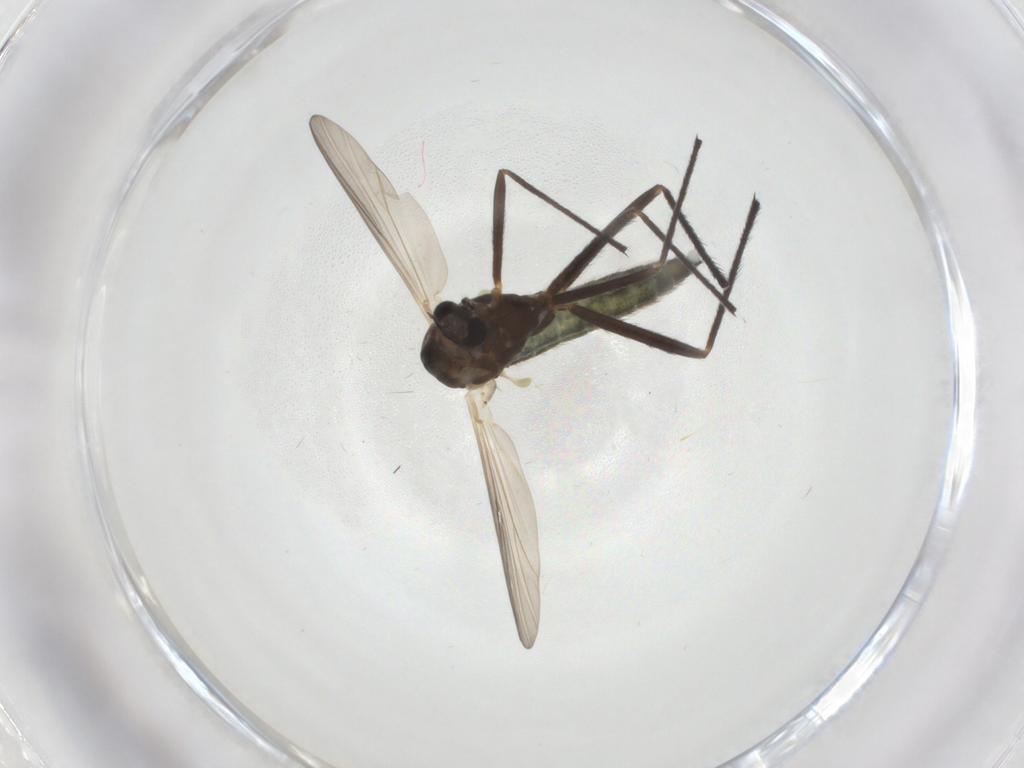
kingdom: Animalia
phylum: Arthropoda
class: Insecta
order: Diptera
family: Chironomidae
